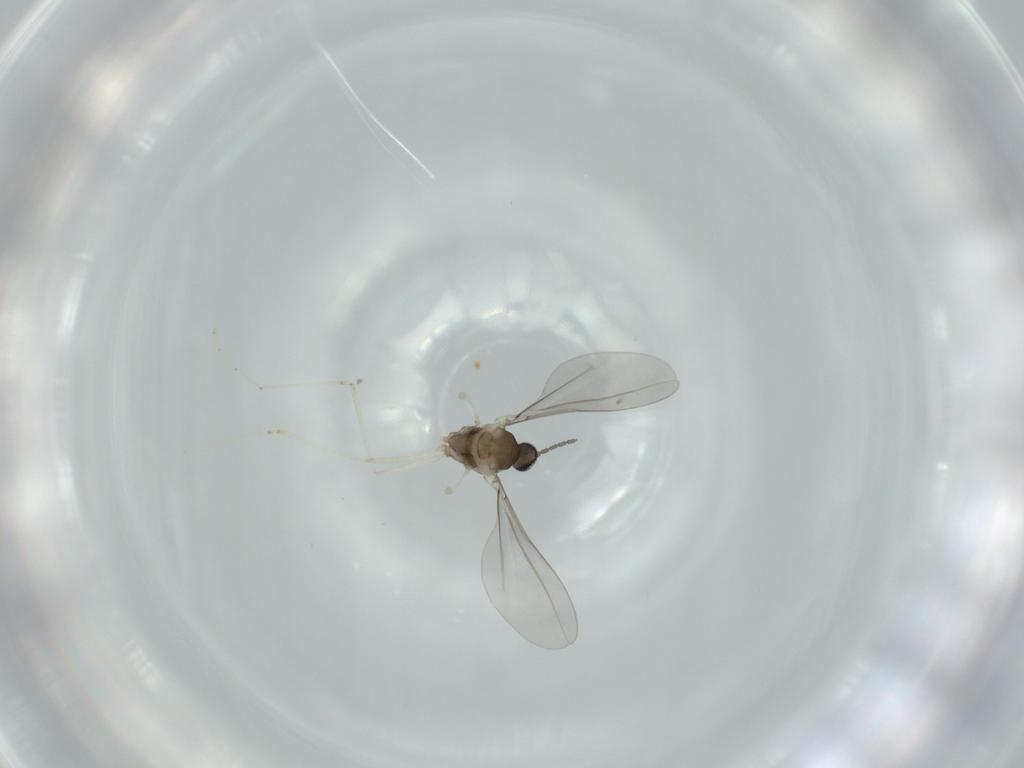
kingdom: Animalia
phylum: Arthropoda
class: Insecta
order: Diptera
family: Cecidomyiidae
